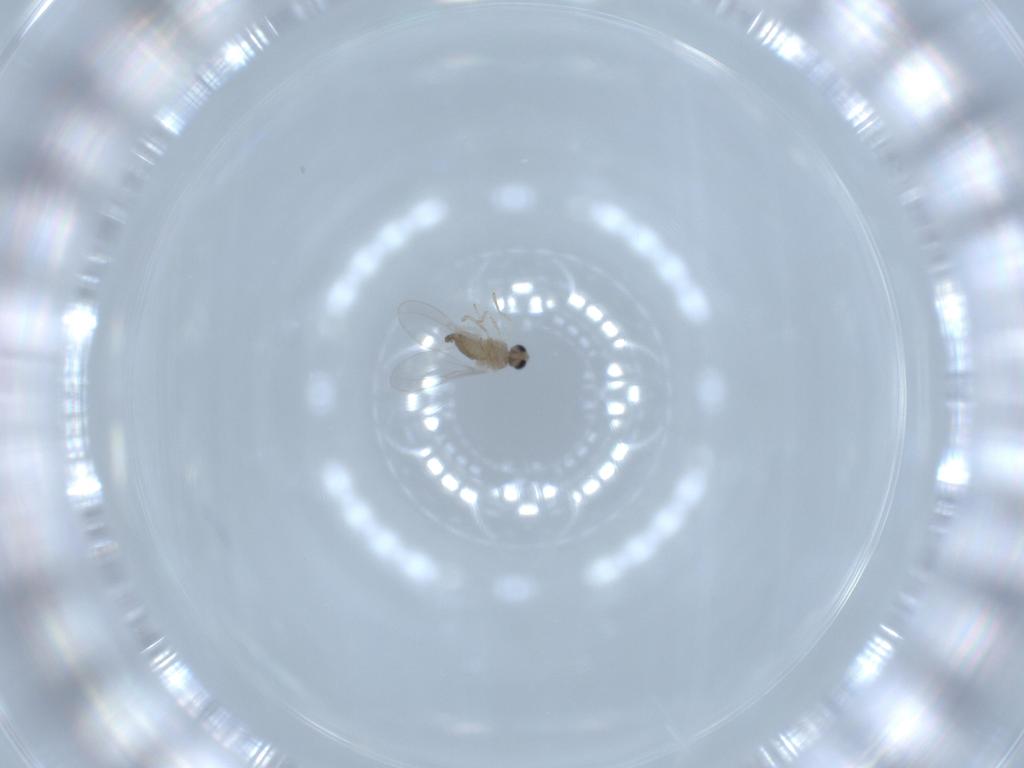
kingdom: Animalia
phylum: Arthropoda
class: Insecta
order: Diptera
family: Cecidomyiidae
